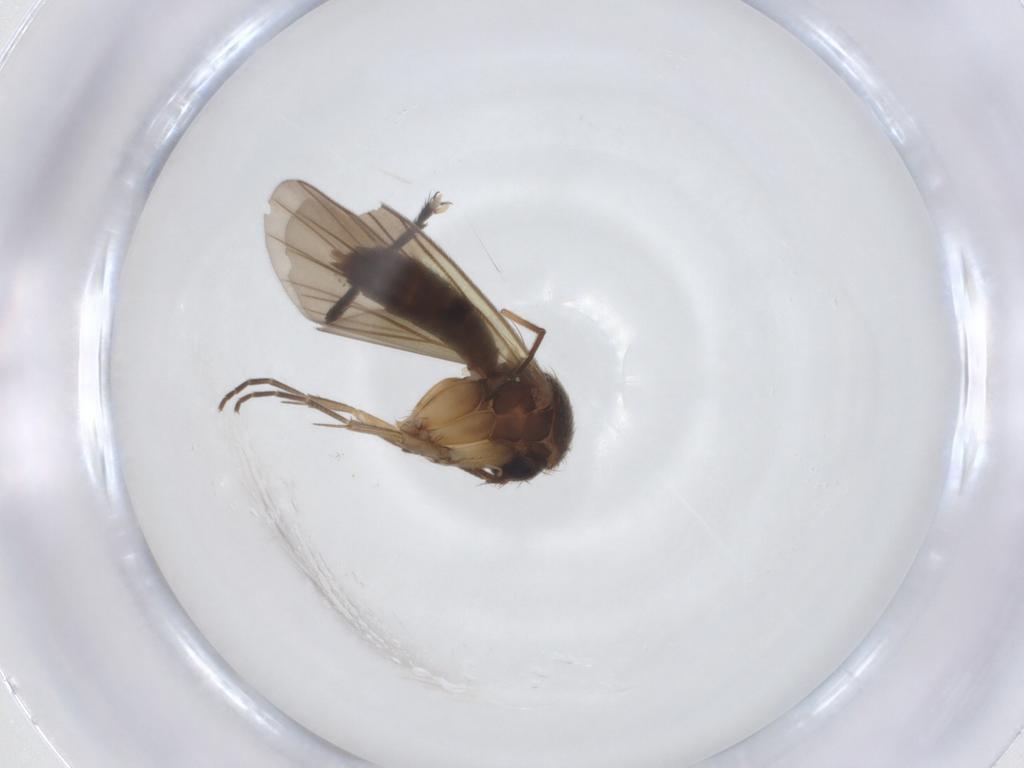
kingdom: Animalia
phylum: Arthropoda
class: Insecta
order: Diptera
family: Chironomidae
